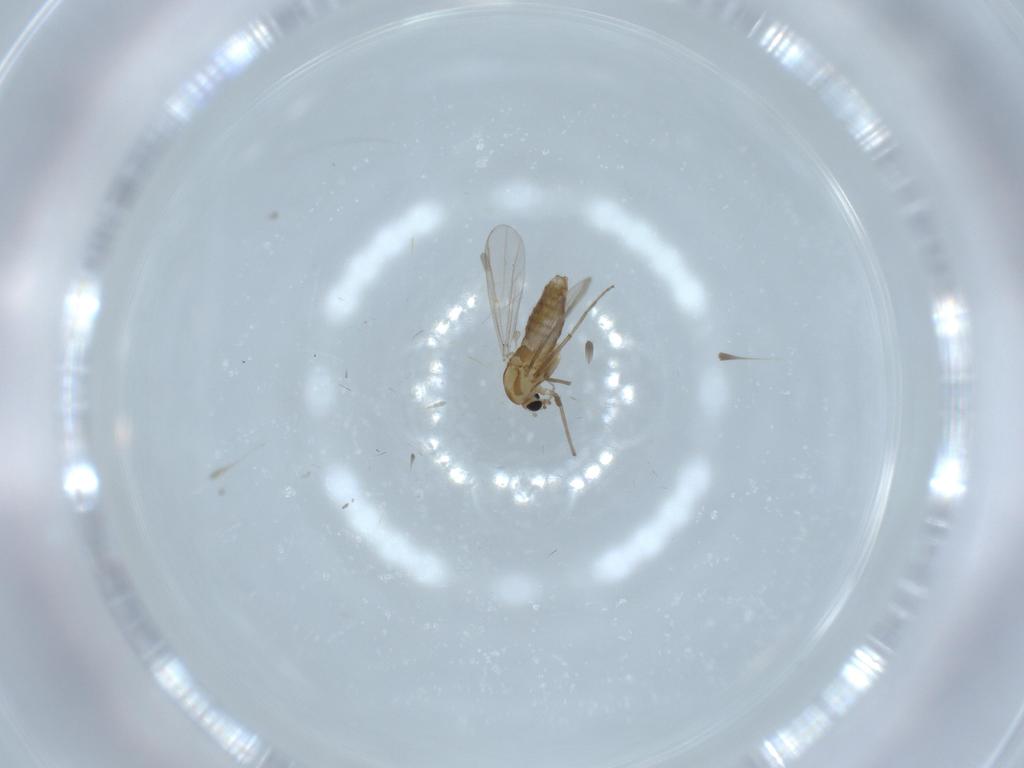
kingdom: Animalia
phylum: Arthropoda
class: Insecta
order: Diptera
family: Chironomidae
